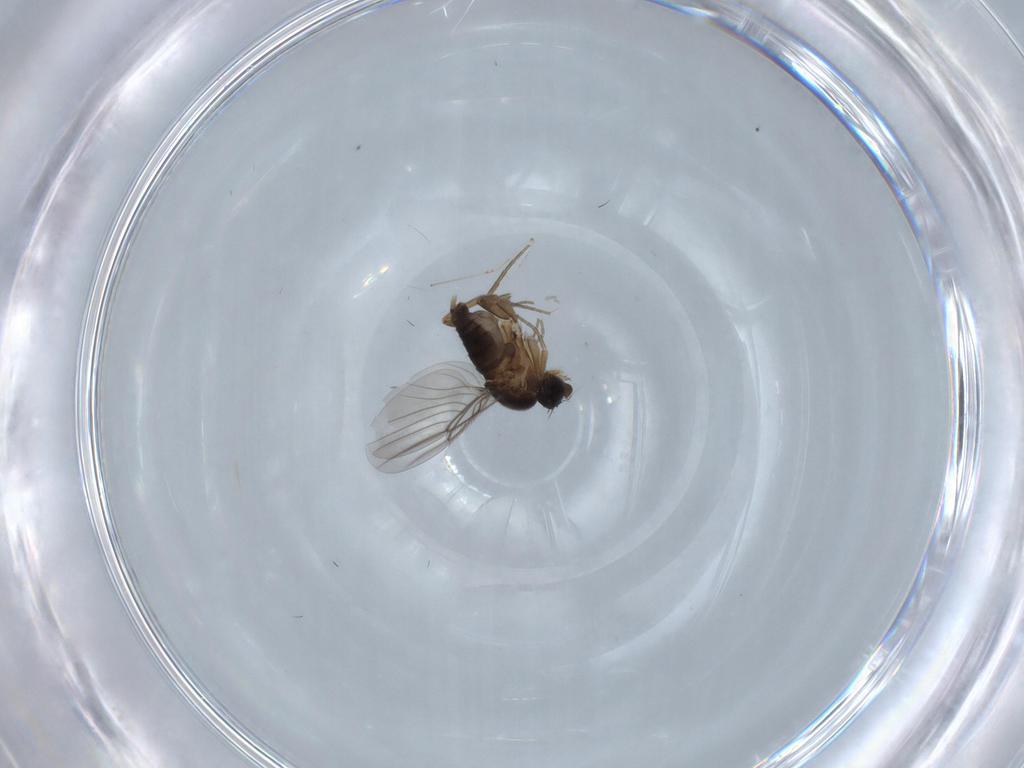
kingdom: Animalia
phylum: Arthropoda
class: Insecta
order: Diptera
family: Phoridae
